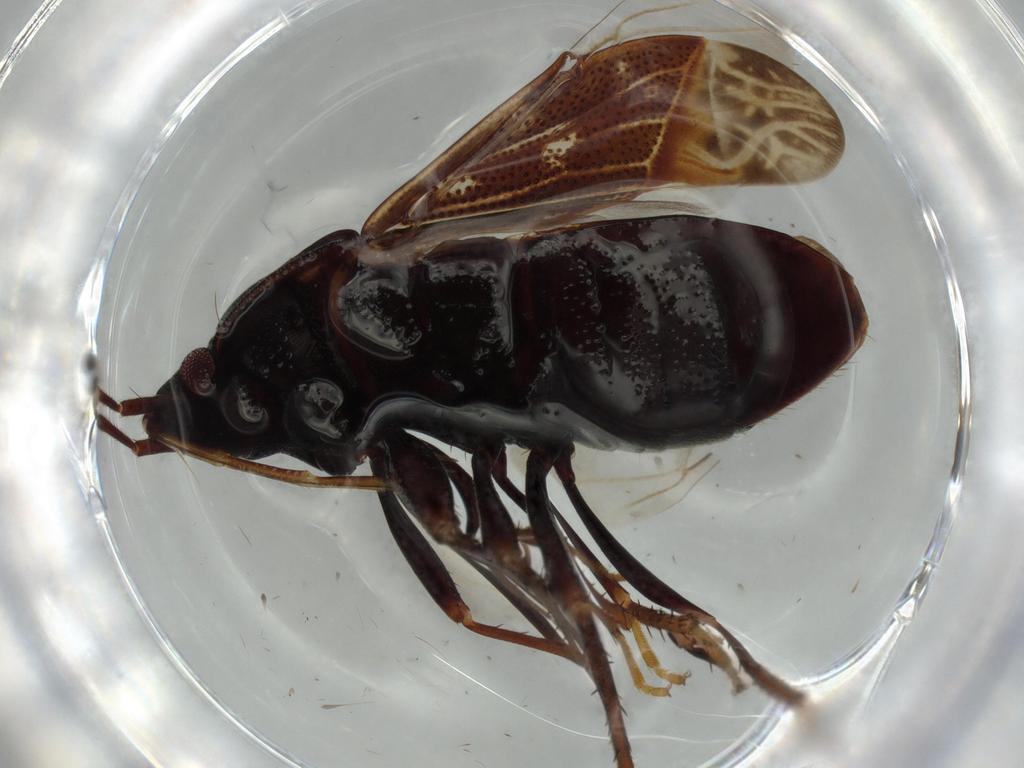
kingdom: Animalia
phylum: Arthropoda
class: Insecta
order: Hemiptera
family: Rhyparochromidae
